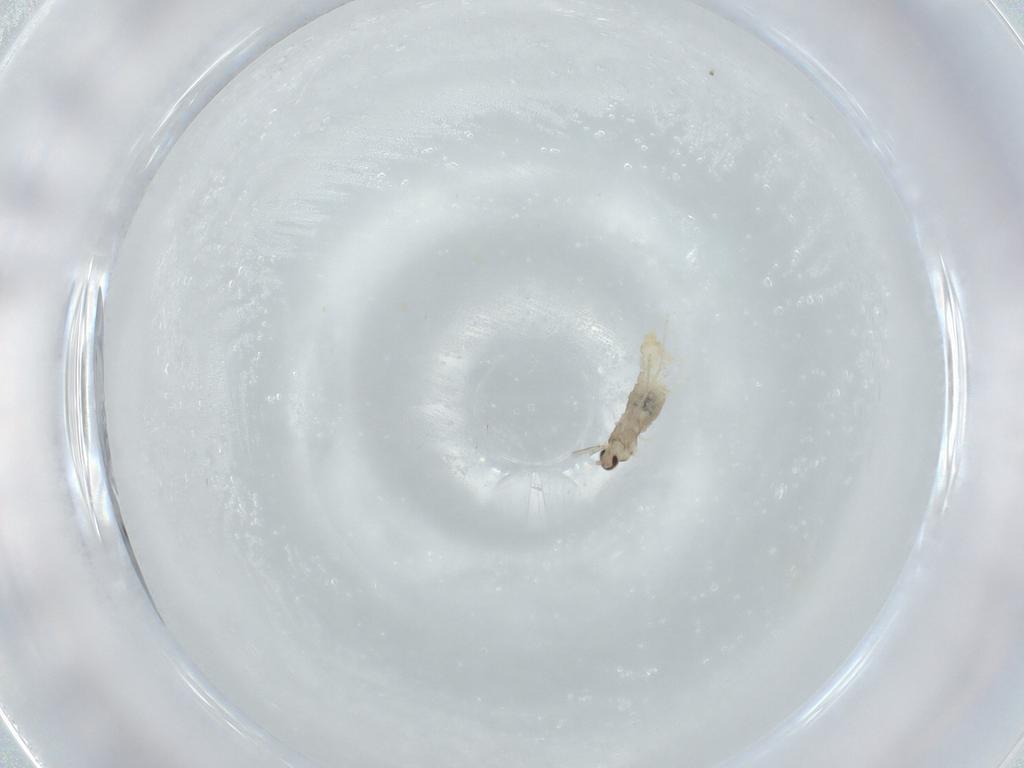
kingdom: Animalia
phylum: Arthropoda
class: Insecta
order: Diptera
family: Cecidomyiidae
